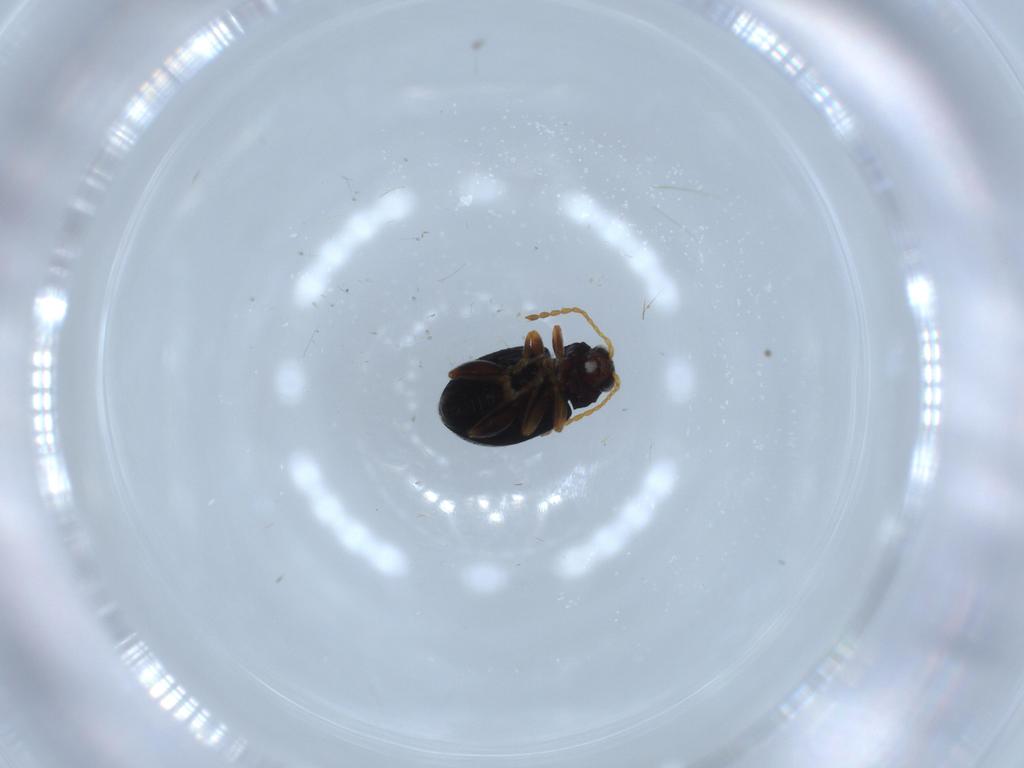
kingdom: Animalia
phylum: Arthropoda
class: Insecta
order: Coleoptera
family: Chrysomelidae
